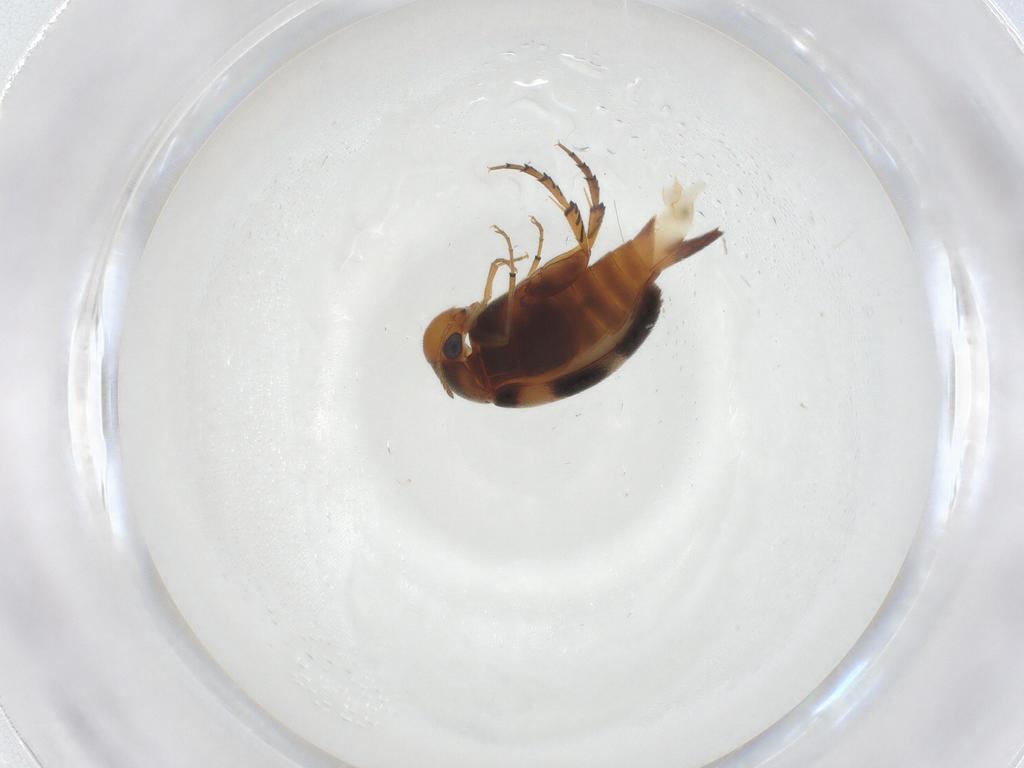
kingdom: Animalia
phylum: Arthropoda
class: Insecta
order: Coleoptera
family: Mordellidae
